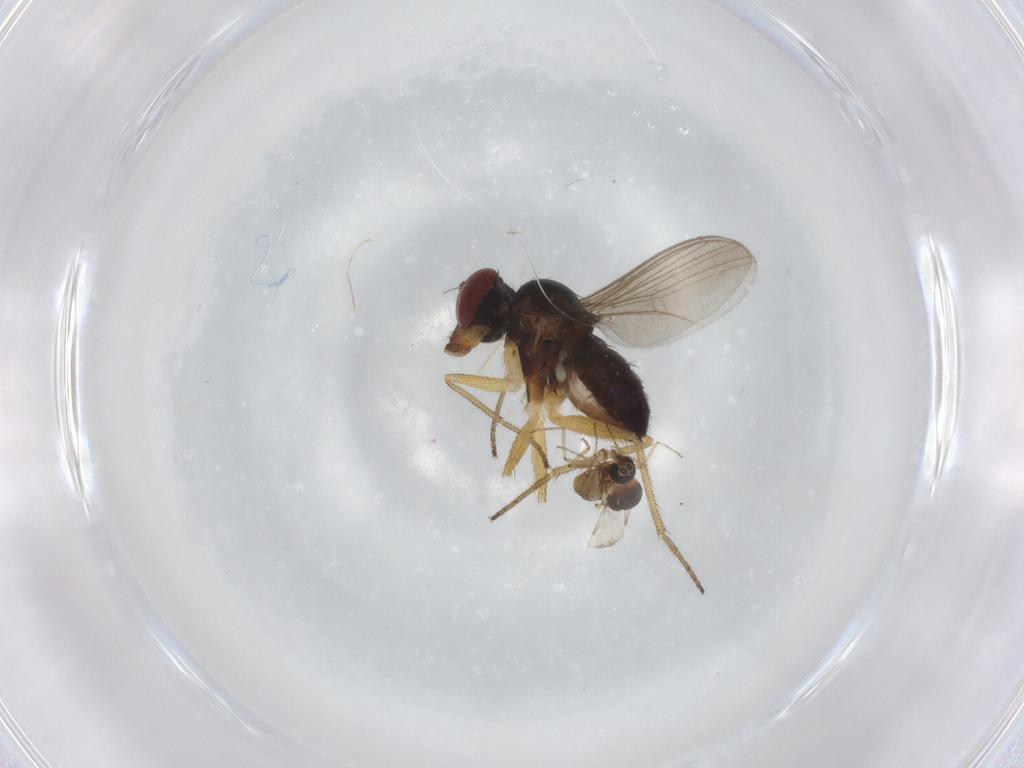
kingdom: Animalia
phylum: Arthropoda
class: Insecta
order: Diptera
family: Dolichopodidae
